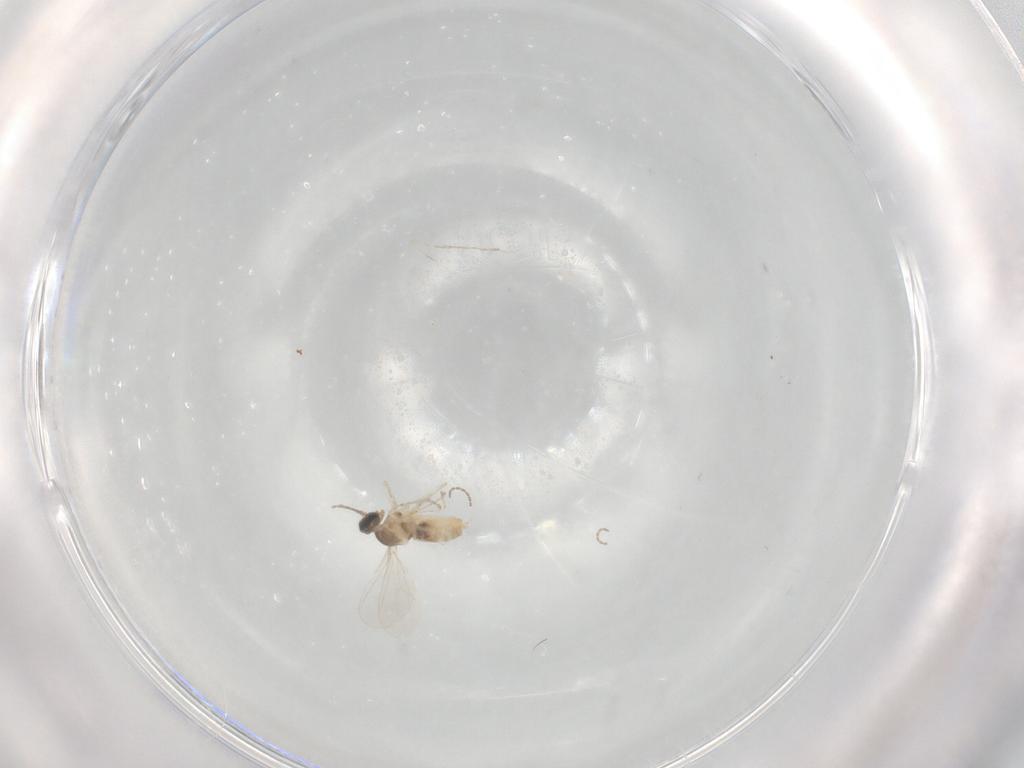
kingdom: Animalia
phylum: Arthropoda
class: Insecta
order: Diptera
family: Cecidomyiidae
